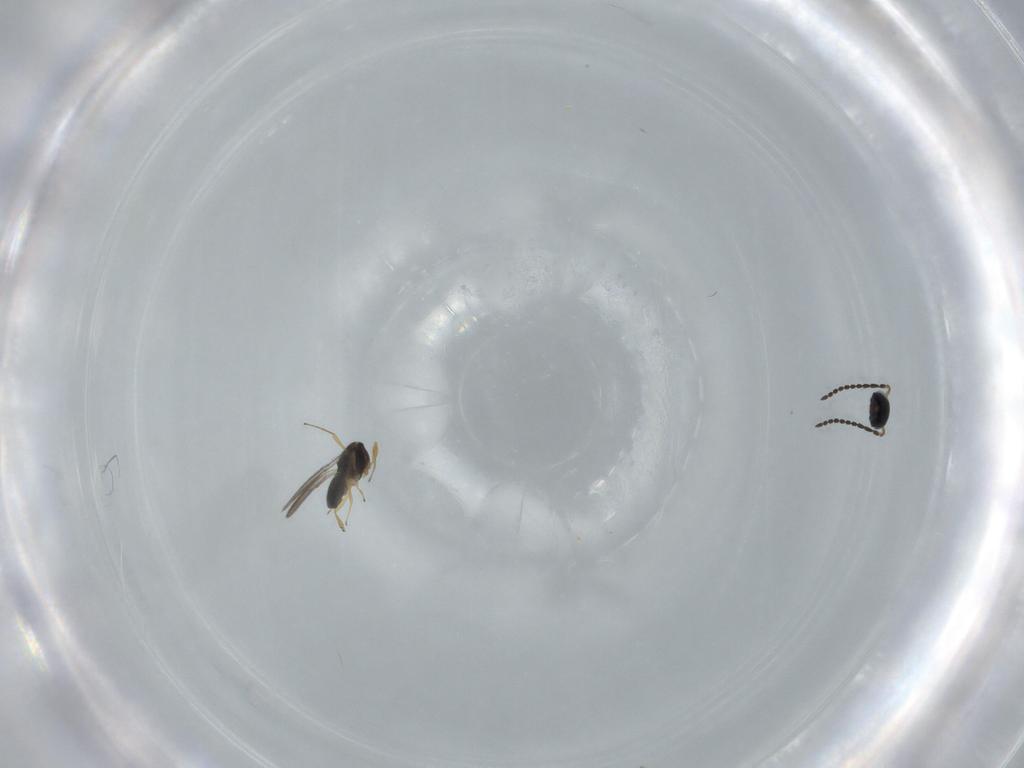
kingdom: Animalia
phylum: Arthropoda
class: Insecta
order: Hymenoptera
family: Scelionidae
